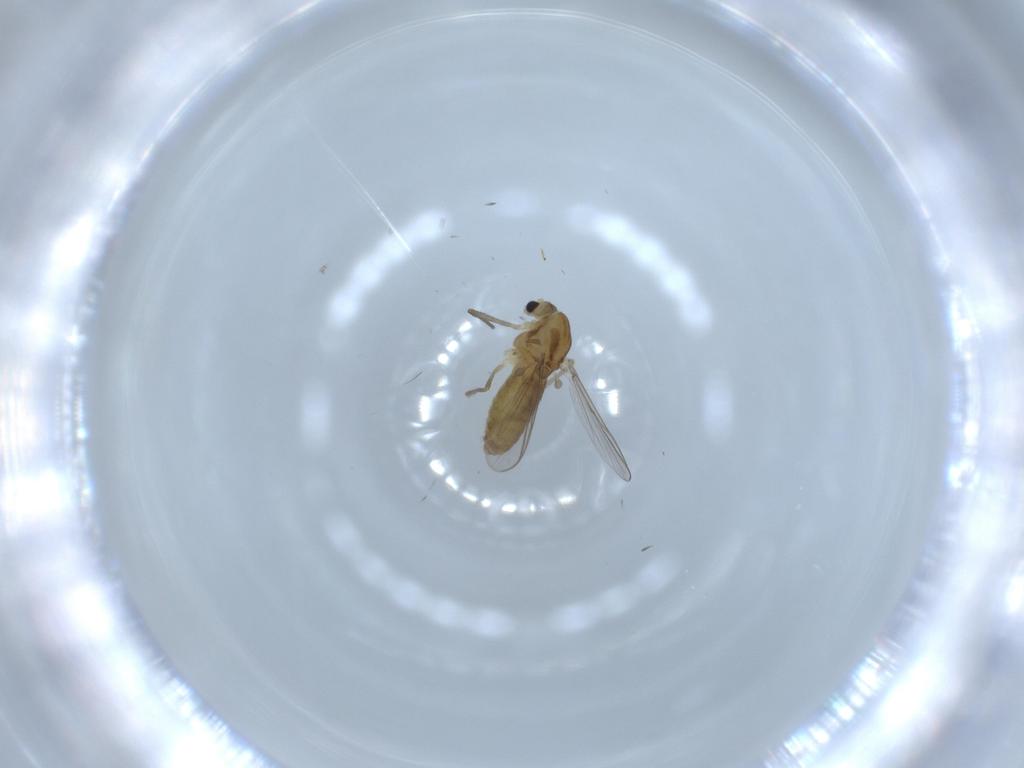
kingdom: Animalia
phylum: Arthropoda
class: Insecta
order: Diptera
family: Chironomidae
